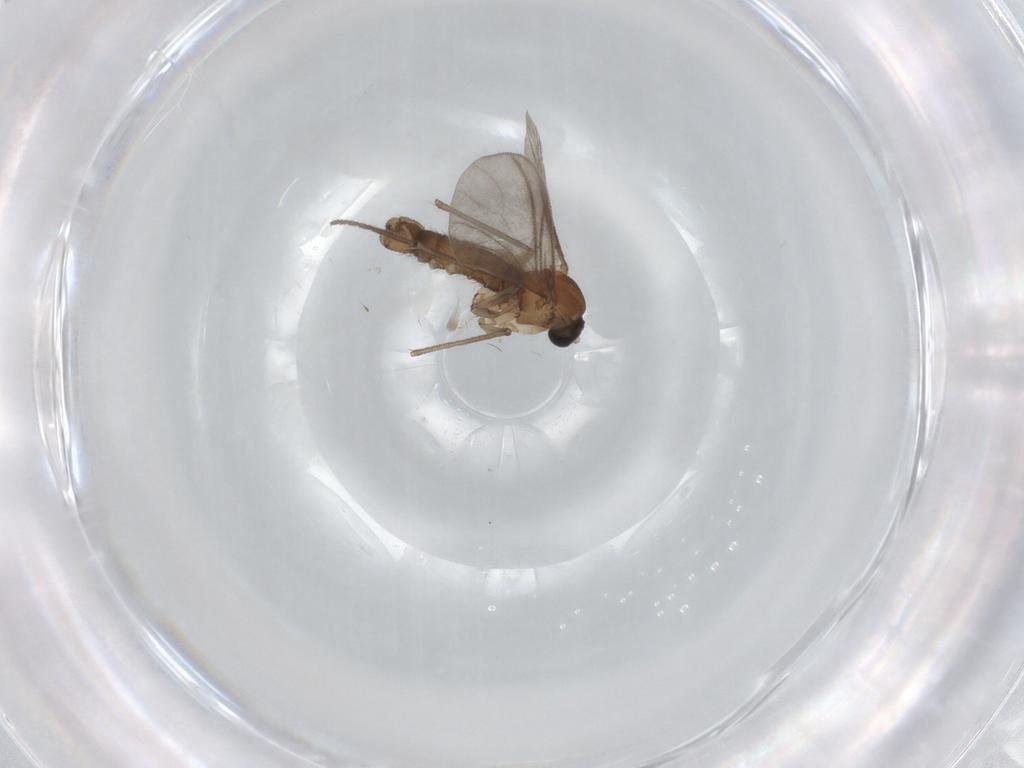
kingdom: Animalia
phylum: Arthropoda
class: Insecta
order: Diptera
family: Sciaridae
